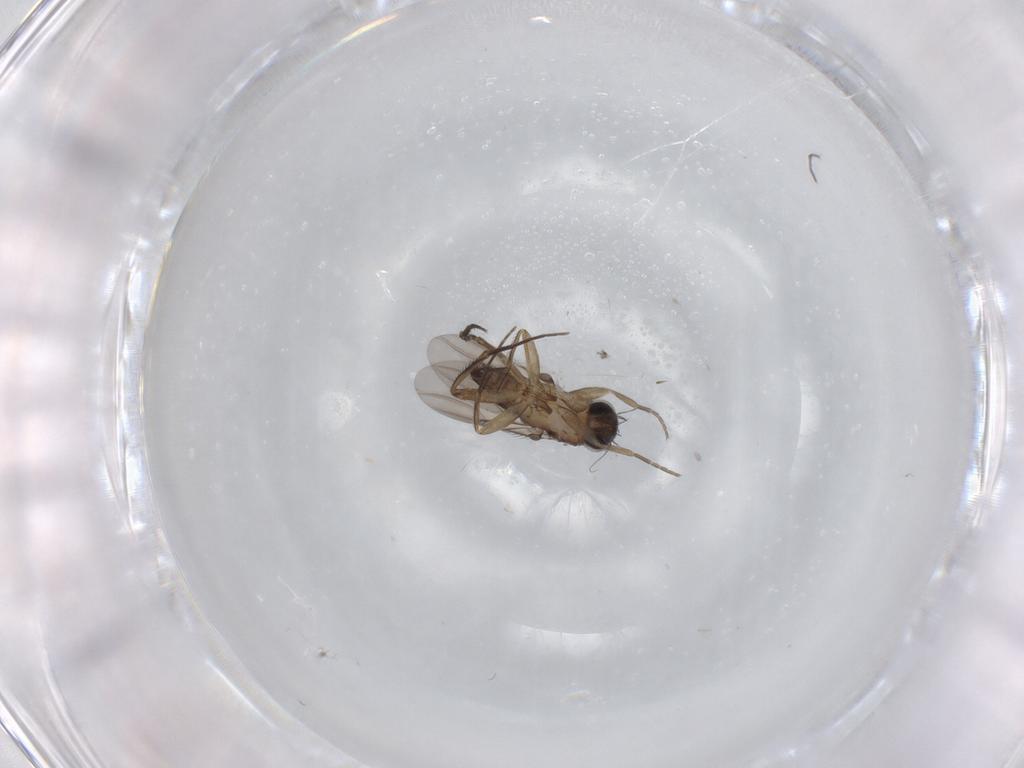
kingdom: Animalia
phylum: Arthropoda
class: Insecta
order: Diptera
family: Phoridae
